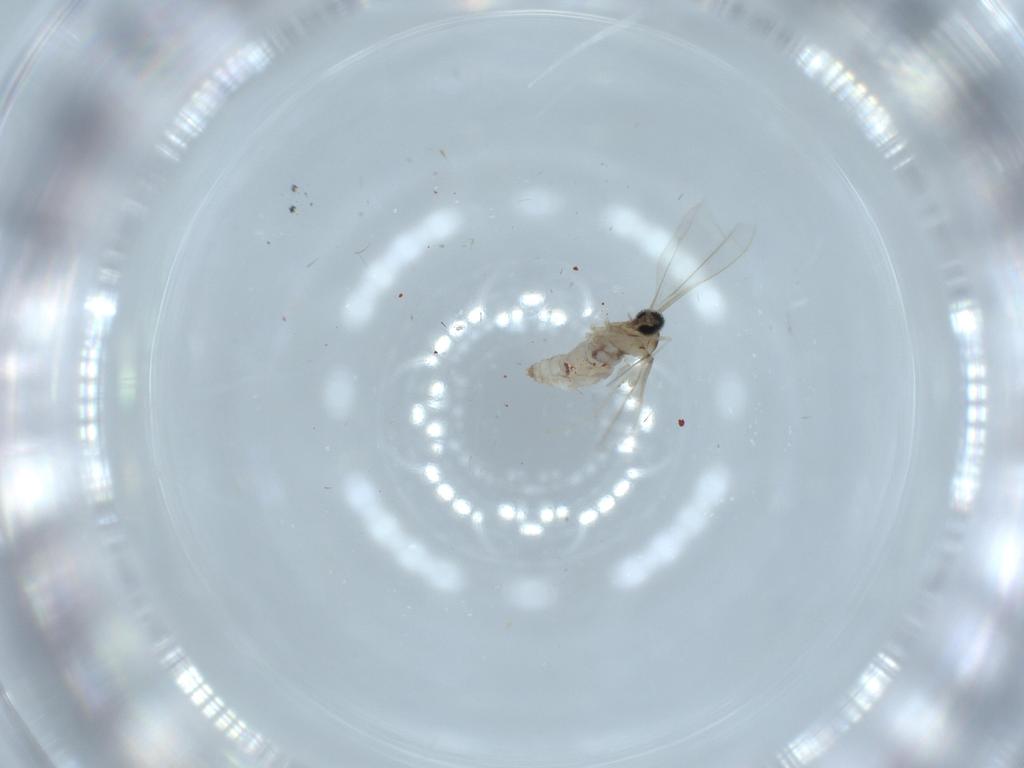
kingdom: Animalia
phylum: Arthropoda
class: Insecta
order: Diptera
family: Cecidomyiidae
